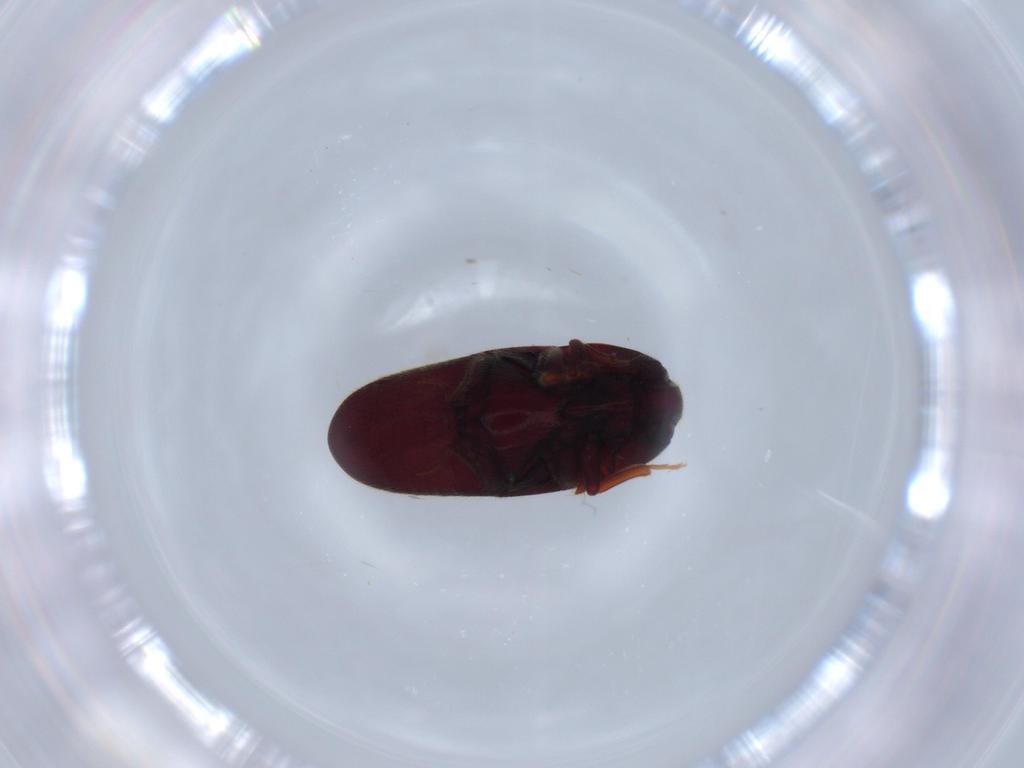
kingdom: Animalia
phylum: Arthropoda
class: Insecta
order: Coleoptera
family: Throscidae
